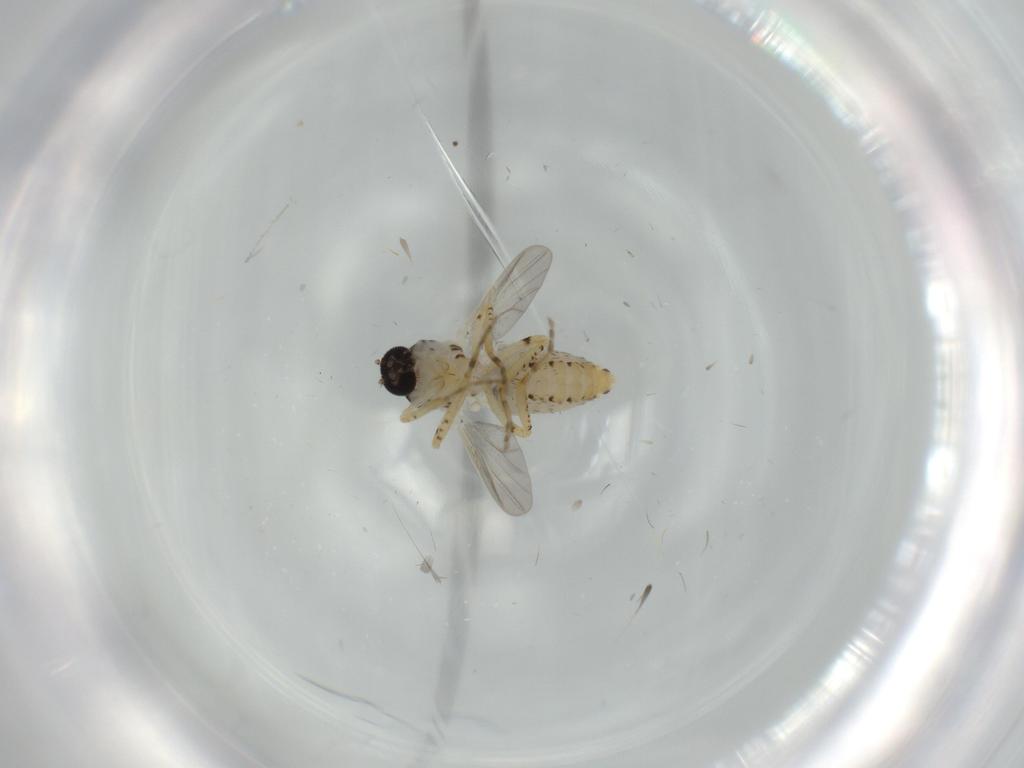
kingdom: Animalia
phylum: Arthropoda
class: Insecta
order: Diptera
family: Ceratopogonidae
